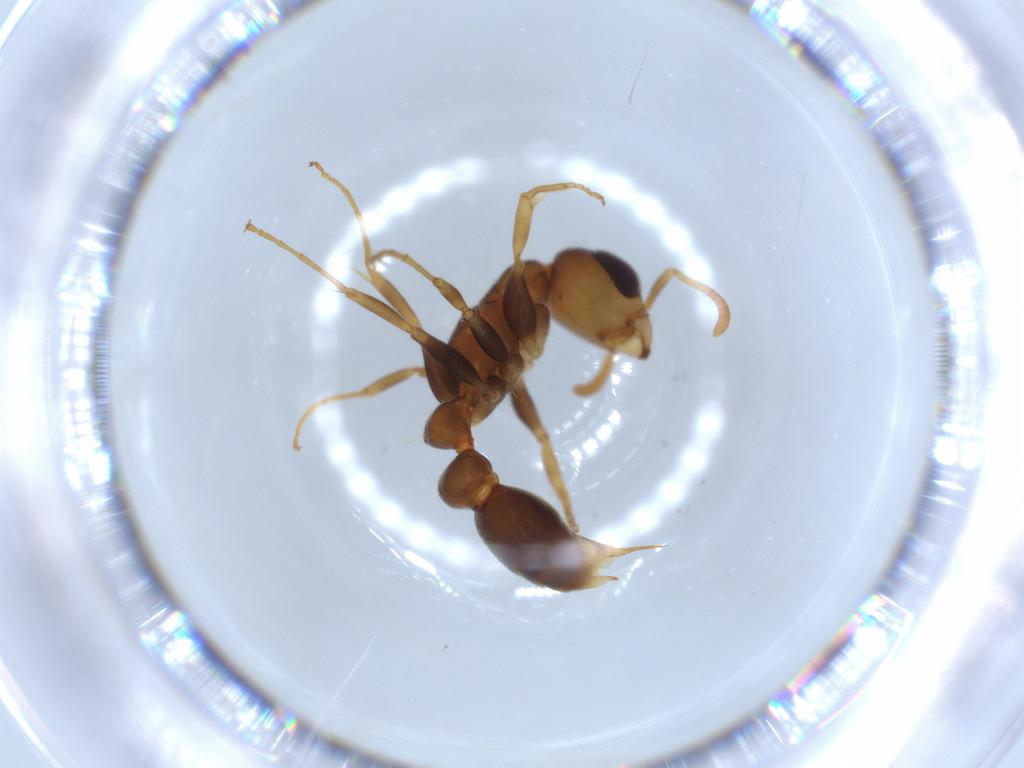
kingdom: Animalia
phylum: Arthropoda
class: Insecta
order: Hymenoptera
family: Formicidae
